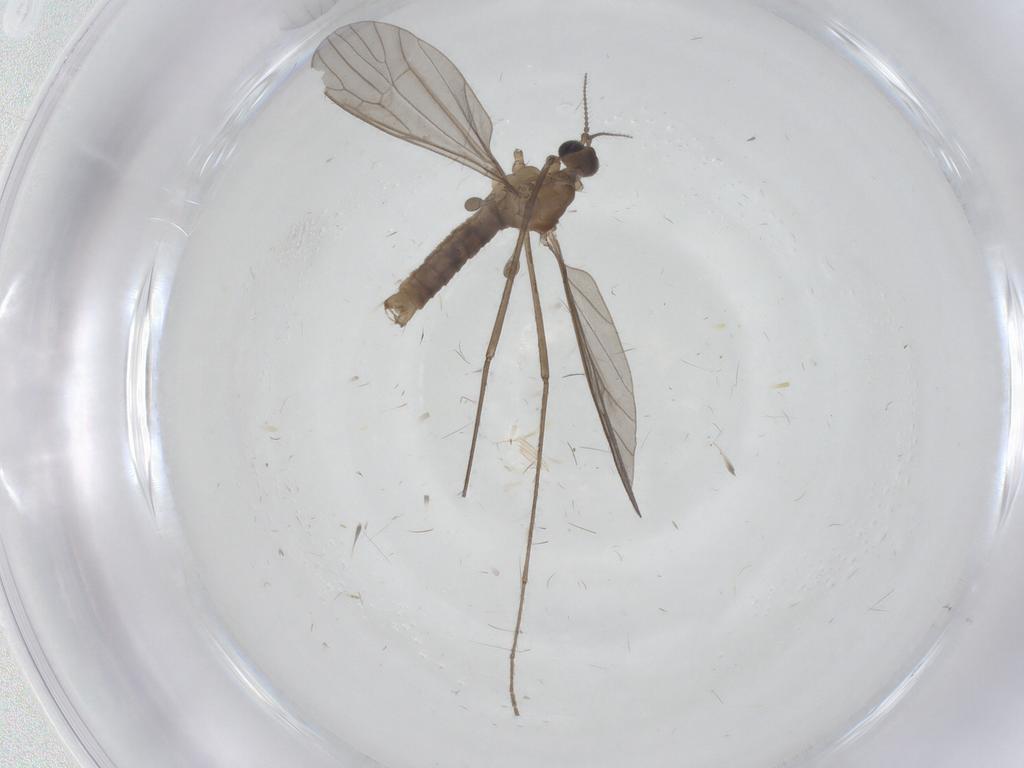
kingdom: Animalia
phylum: Arthropoda
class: Insecta
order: Diptera
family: Limoniidae
